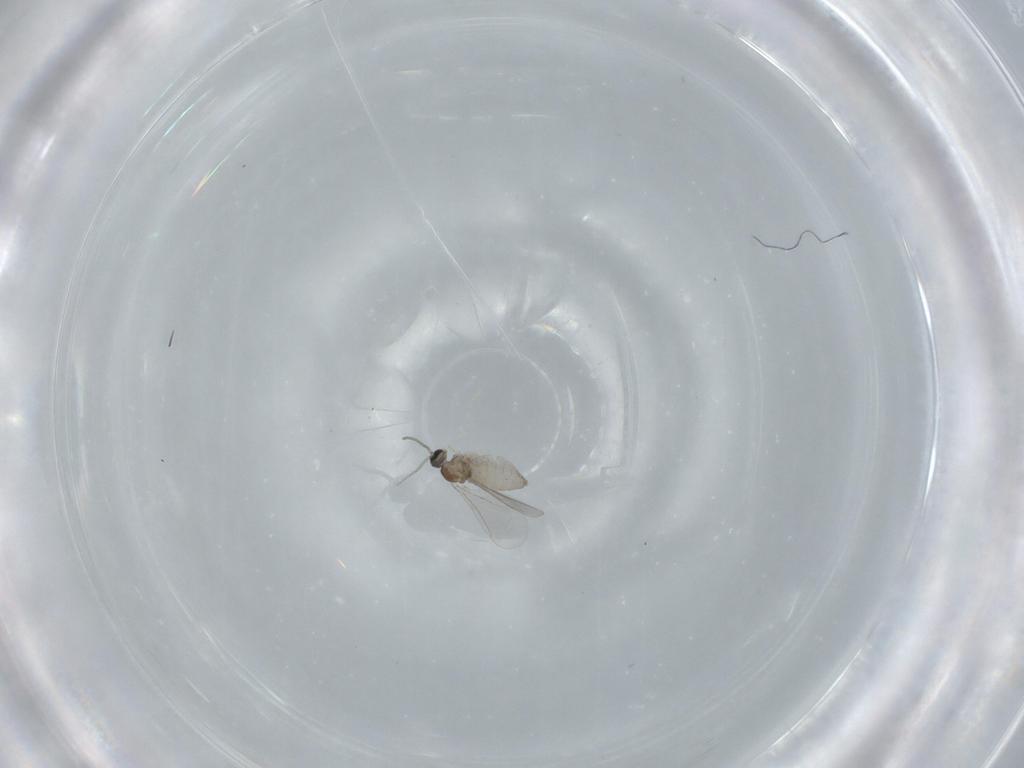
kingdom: Animalia
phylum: Arthropoda
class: Insecta
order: Diptera
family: Cecidomyiidae
